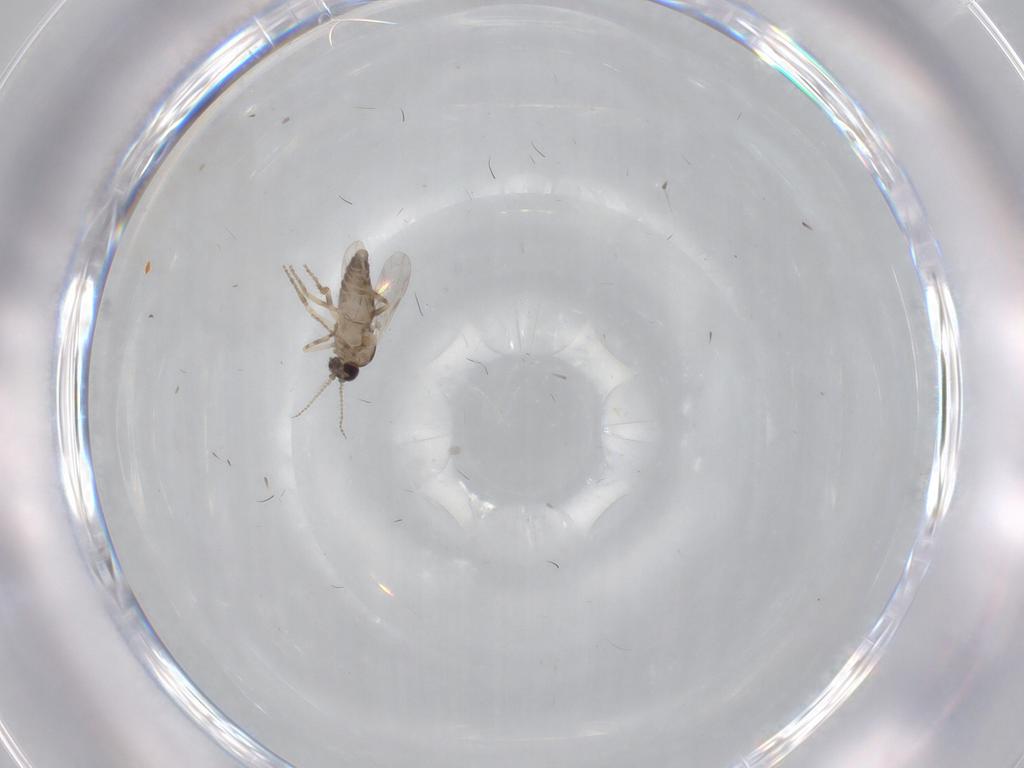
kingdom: Animalia
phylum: Arthropoda
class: Insecta
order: Diptera
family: Ceratopogonidae
